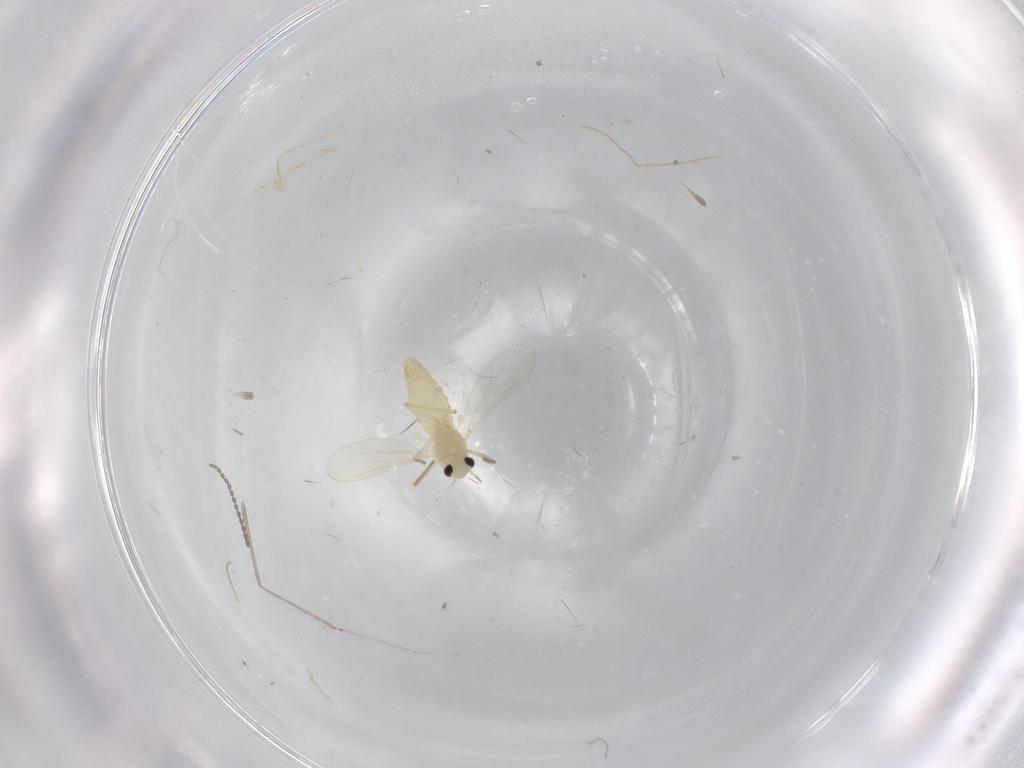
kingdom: Animalia
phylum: Arthropoda
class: Insecta
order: Diptera
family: Chironomidae
